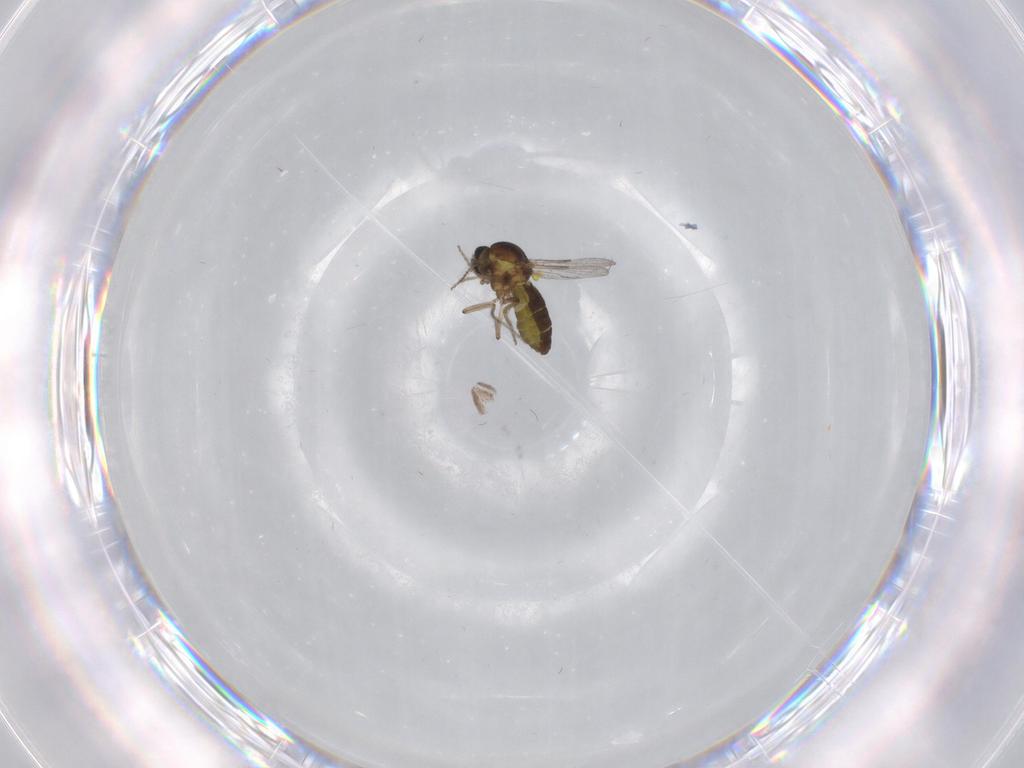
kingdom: Animalia
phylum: Arthropoda
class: Insecta
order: Diptera
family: Ceratopogonidae
